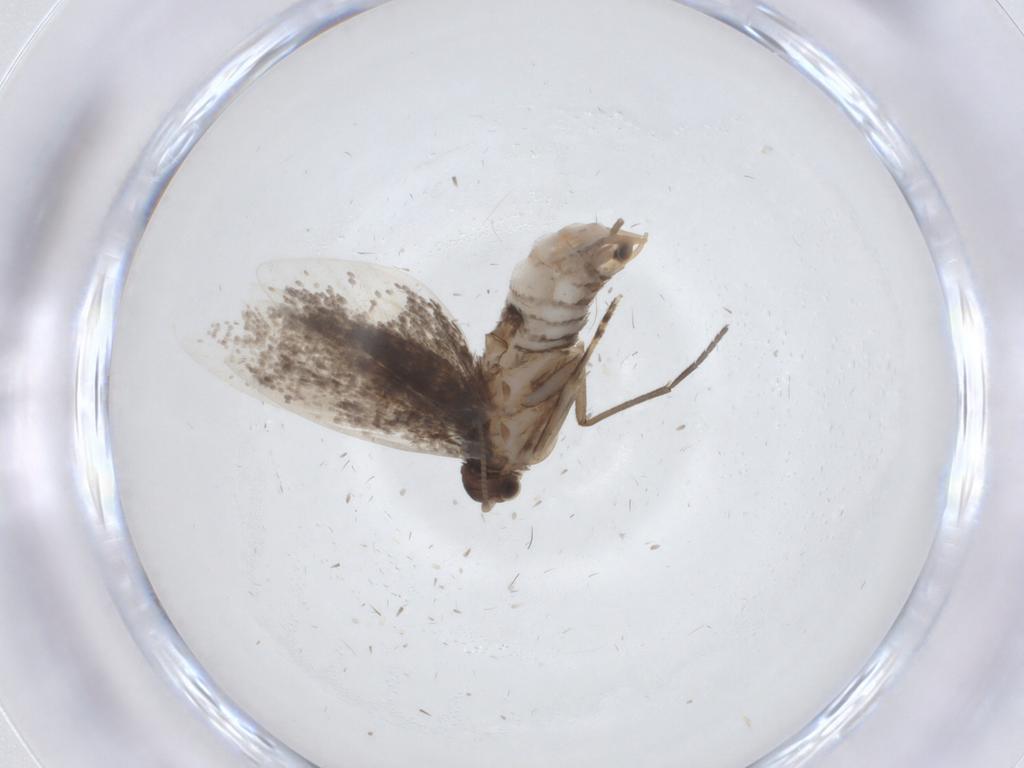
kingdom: Animalia
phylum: Arthropoda
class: Insecta
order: Lepidoptera
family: Tineidae
